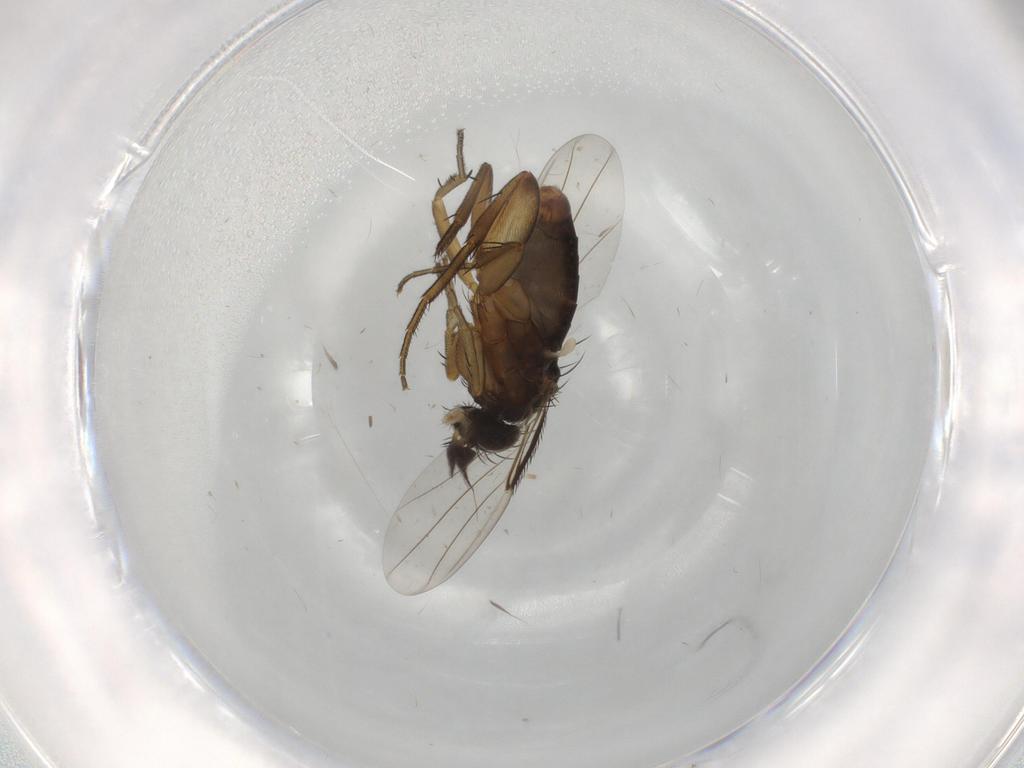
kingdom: Animalia
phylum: Arthropoda
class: Insecta
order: Diptera
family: Phoridae
